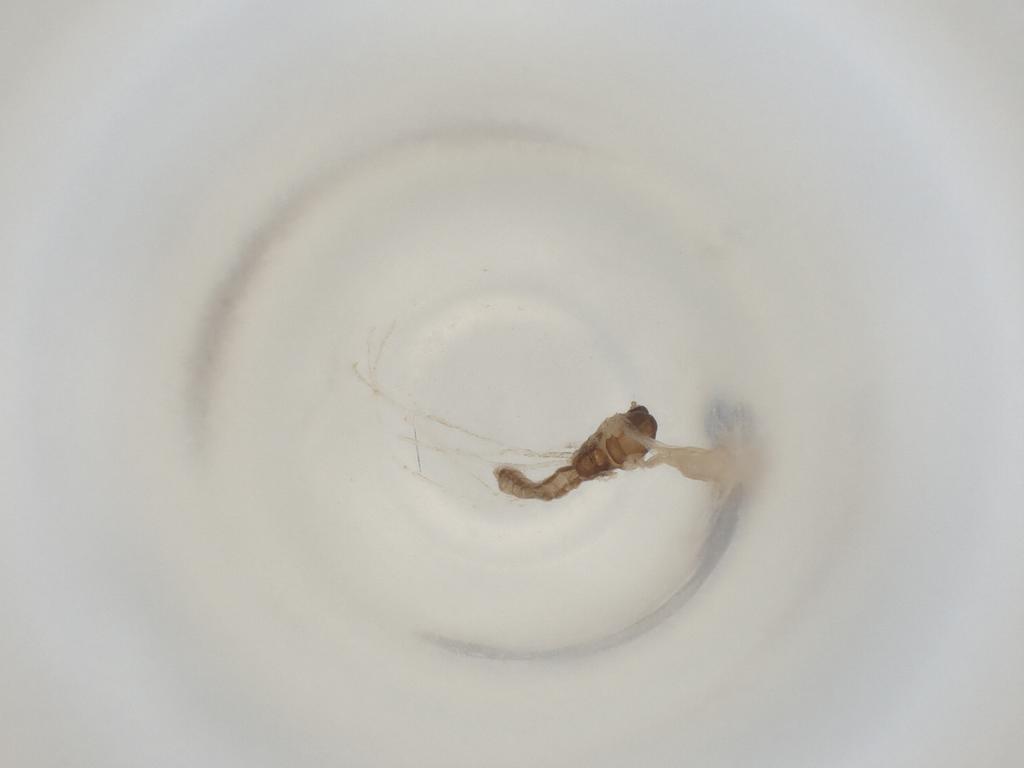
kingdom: Animalia
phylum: Arthropoda
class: Insecta
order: Diptera
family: Cecidomyiidae
